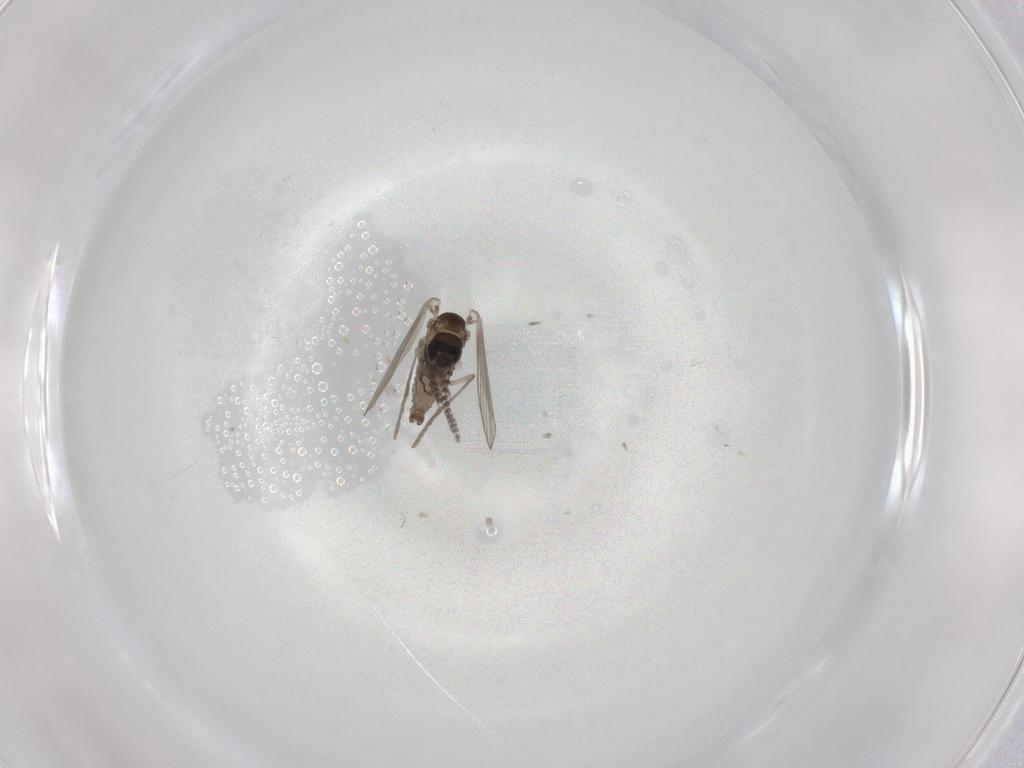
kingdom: Animalia
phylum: Arthropoda
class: Insecta
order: Diptera
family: Psychodidae
